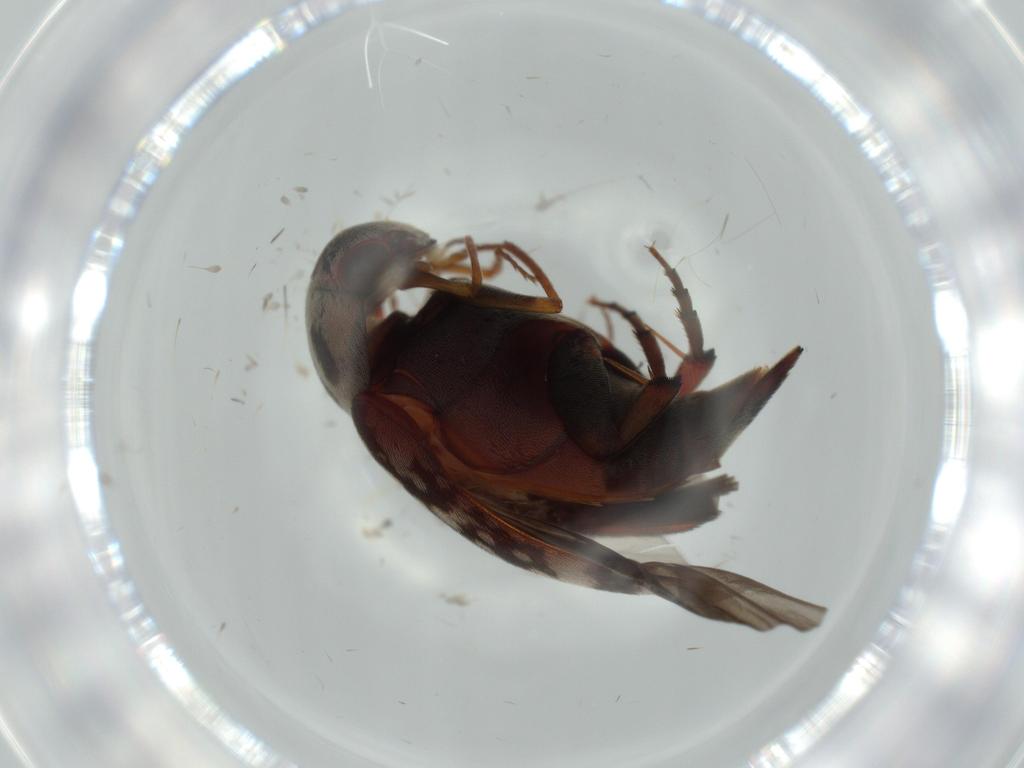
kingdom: Animalia
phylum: Arthropoda
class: Insecta
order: Coleoptera
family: Mordellidae
